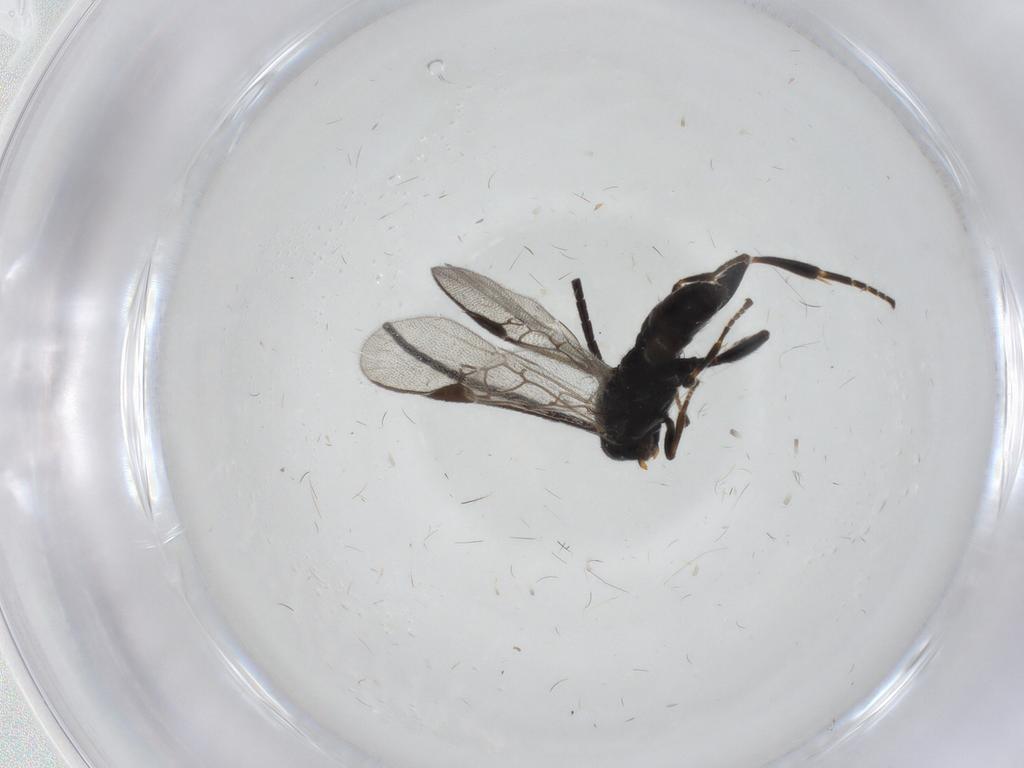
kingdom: Animalia
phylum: Arthropoda
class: Insecta
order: Hymenoptera
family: Braconidae
